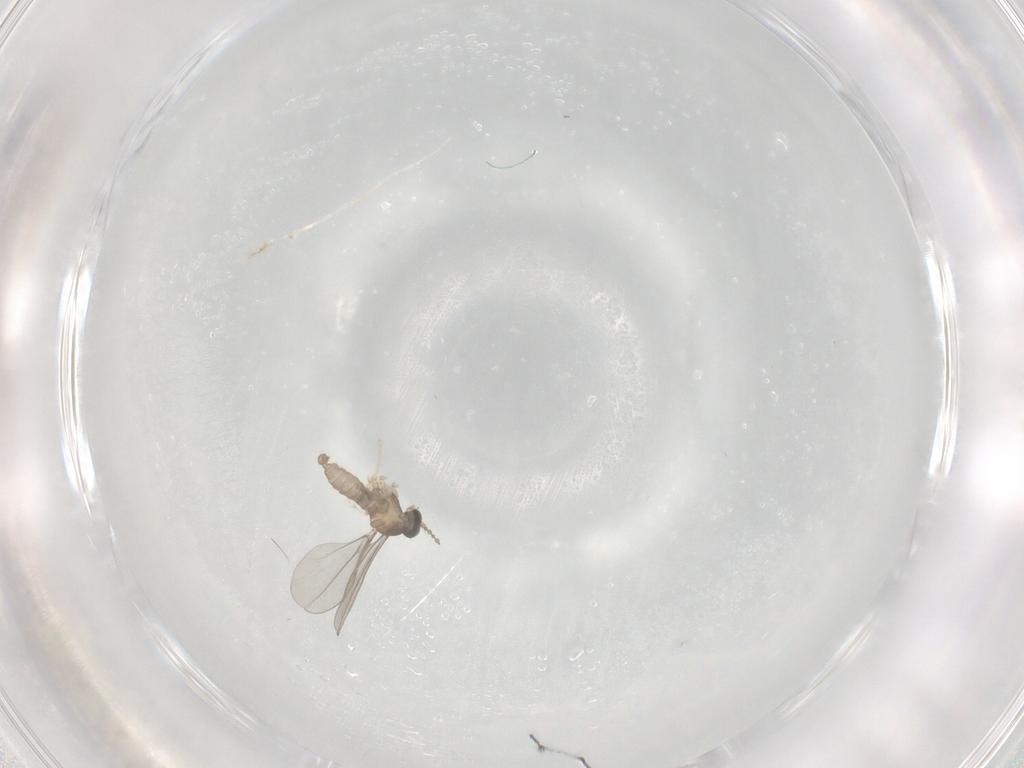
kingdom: Animalia
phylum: Arthropoda
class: Insecta
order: Diptera
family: Cecidomyiidae
